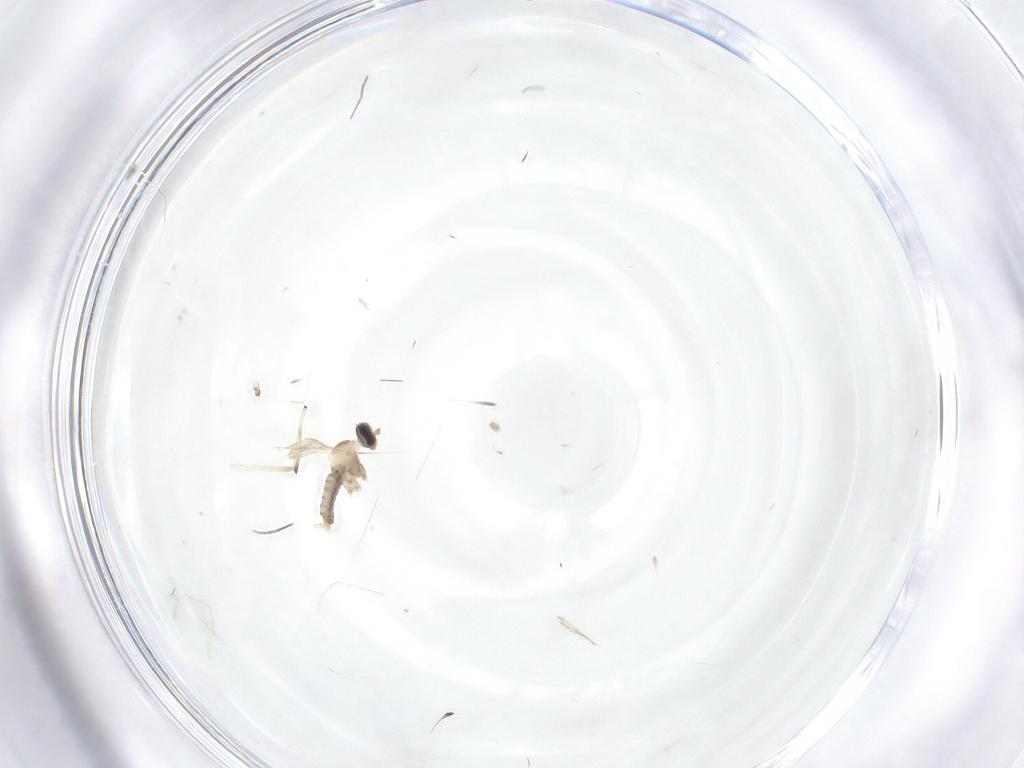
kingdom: Animalia
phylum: Arthropoda
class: Insecta
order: Diptera
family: Chironomidae
